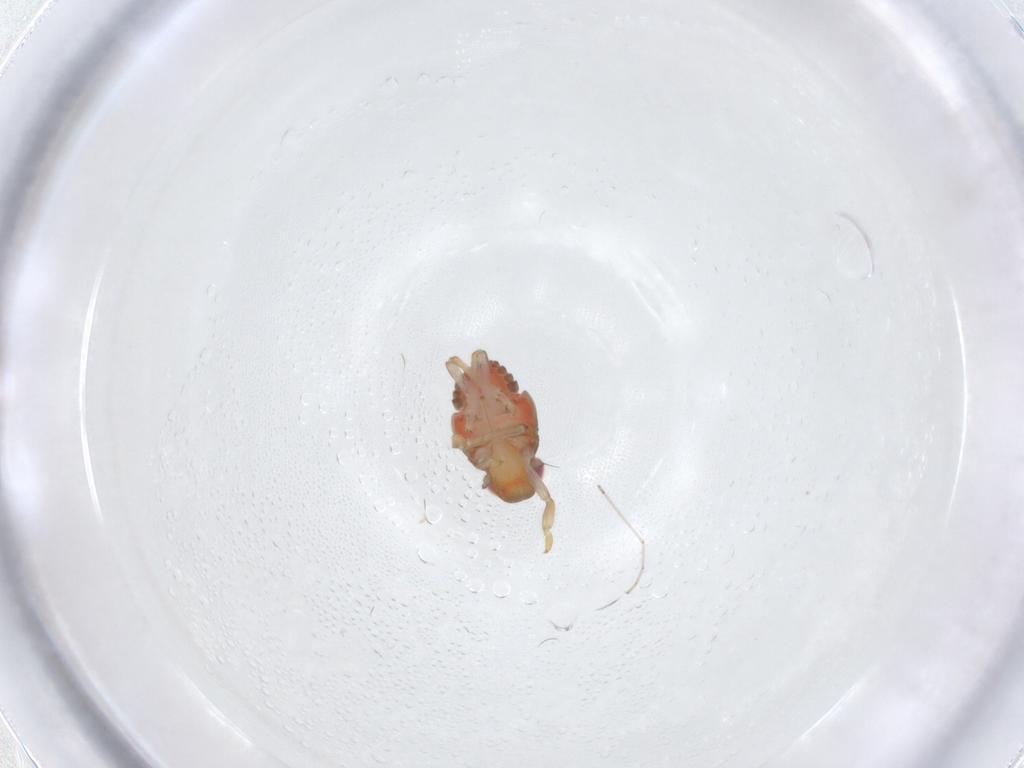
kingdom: Animalia
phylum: Arthropoda
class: Insecta
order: Hemiptera
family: Issidae
